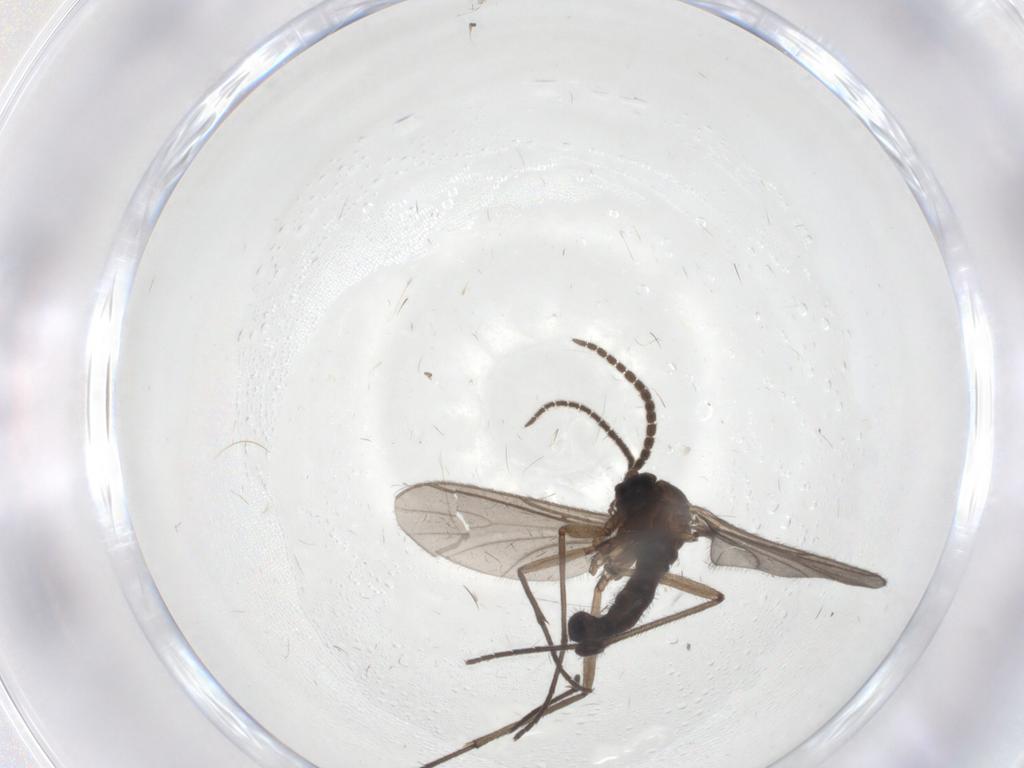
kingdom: Animalia
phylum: Arthropoda
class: Insecta
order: Diptera
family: Sciaridae
